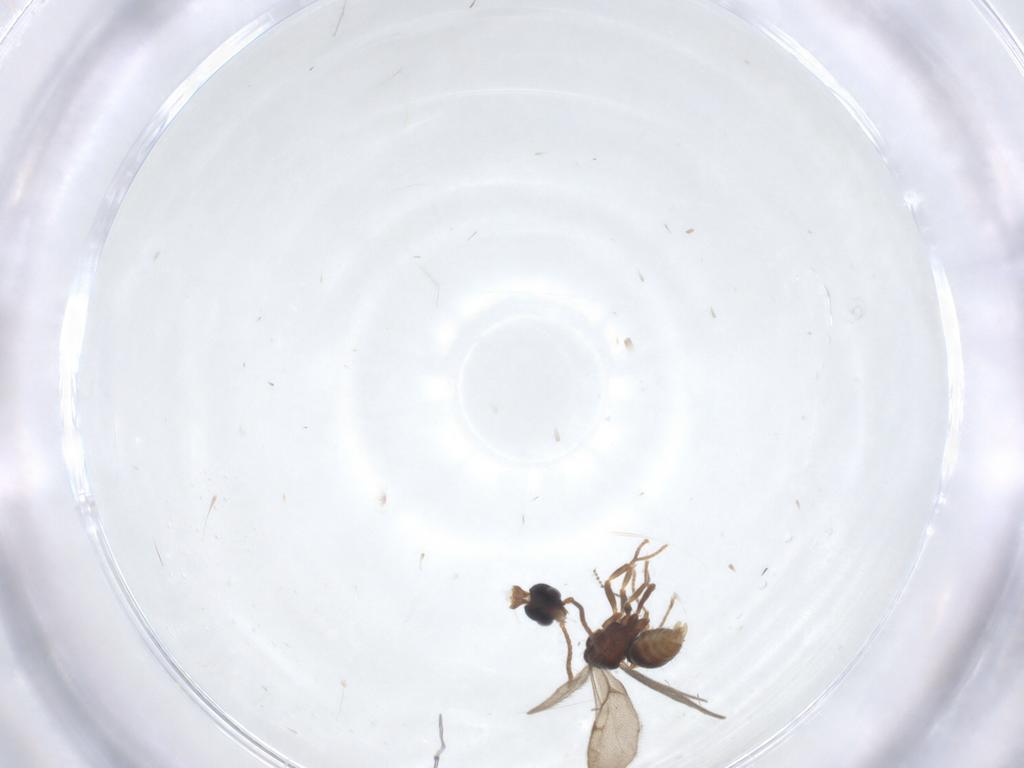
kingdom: Animalia
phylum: Arthropoda
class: Insecta
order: Hymenoptera
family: Formicidae
